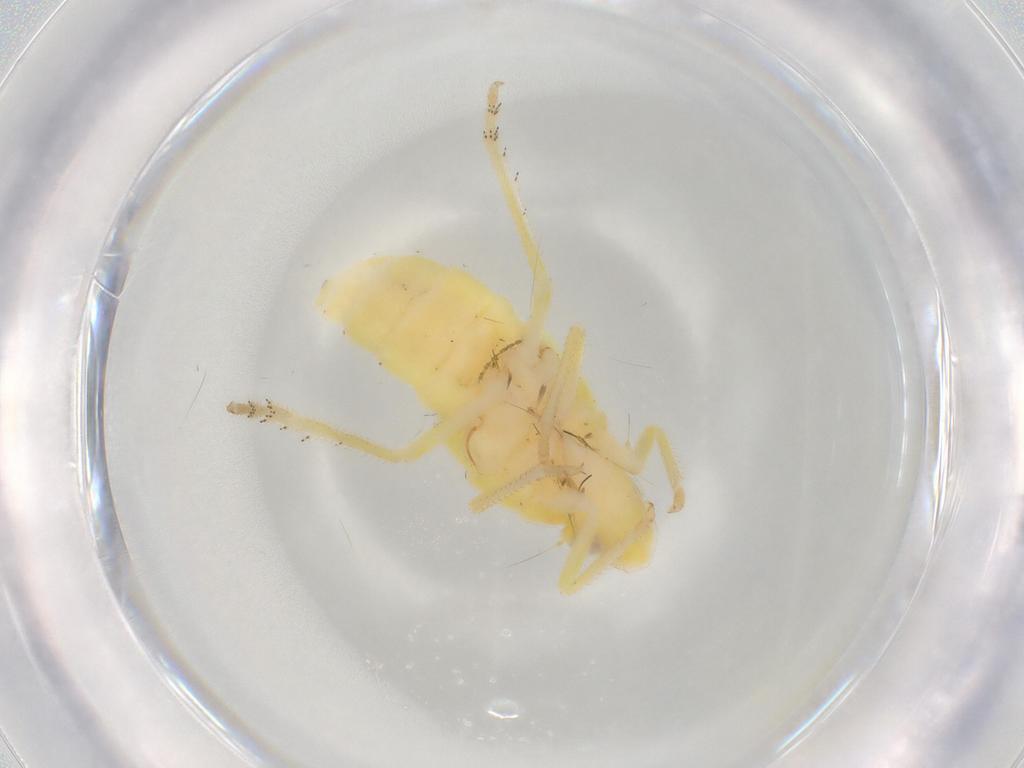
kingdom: Animalia
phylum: Arthropoda
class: Insecta
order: Hemiptera
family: Tropiduchidae
